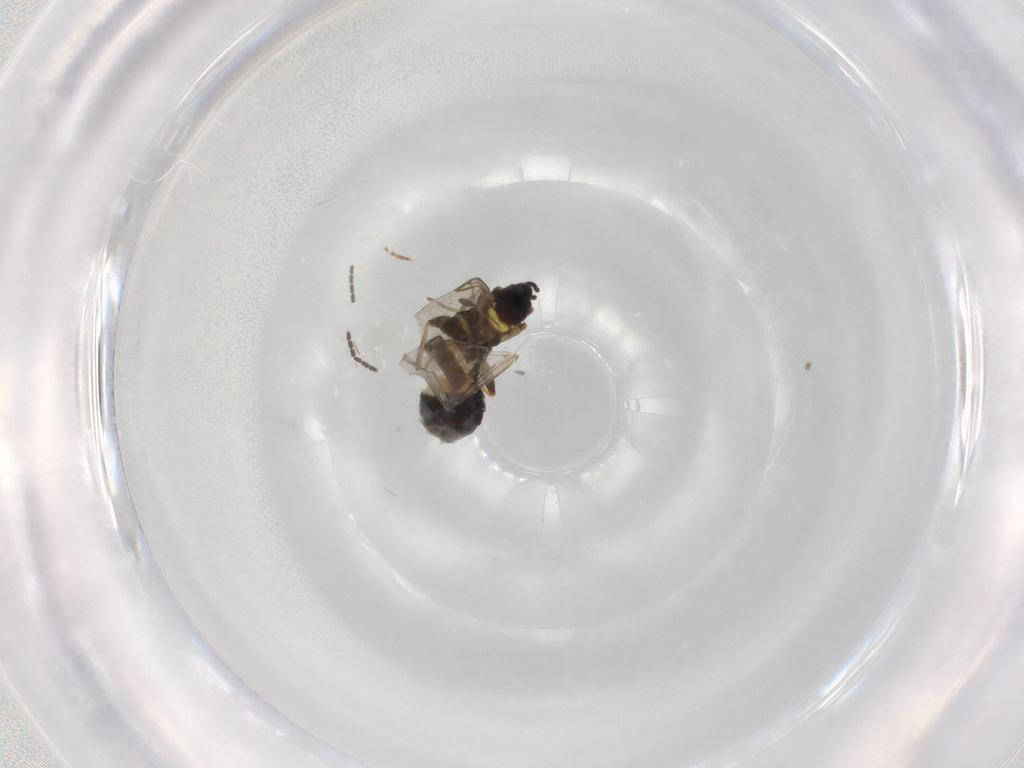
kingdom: Animalia
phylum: Arthropoda
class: Insecta
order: Diptera
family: Scatopsidae
